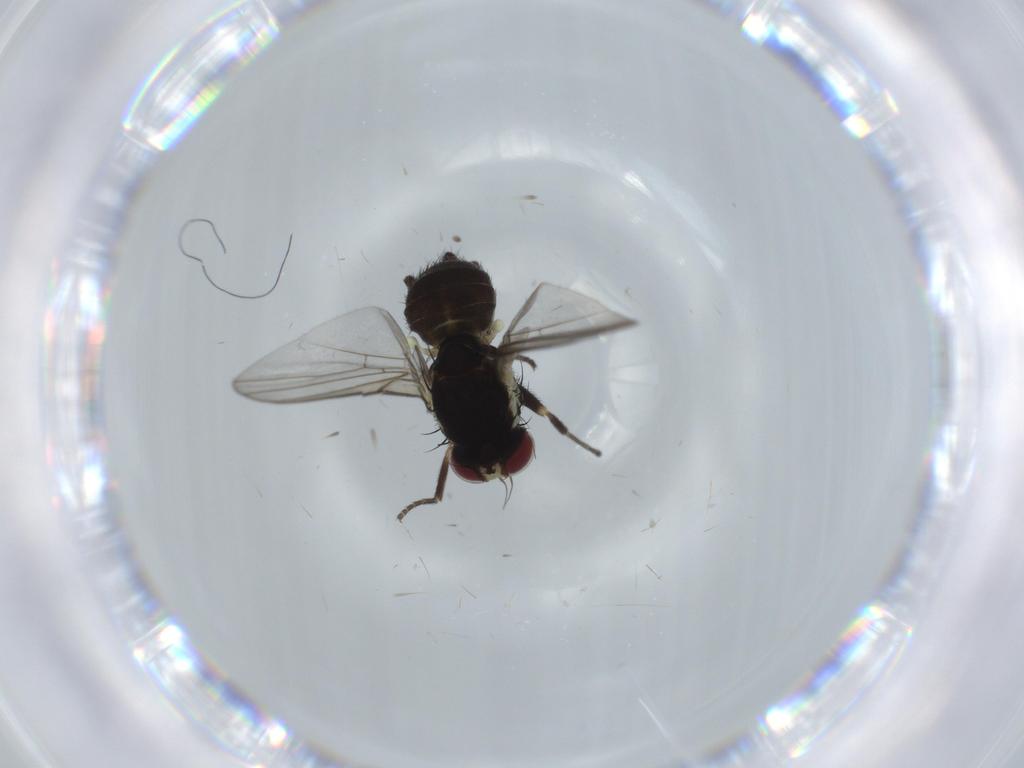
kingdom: Animalia
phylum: Arthropoda
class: Insecta
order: Diptera
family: Agromyzidae
